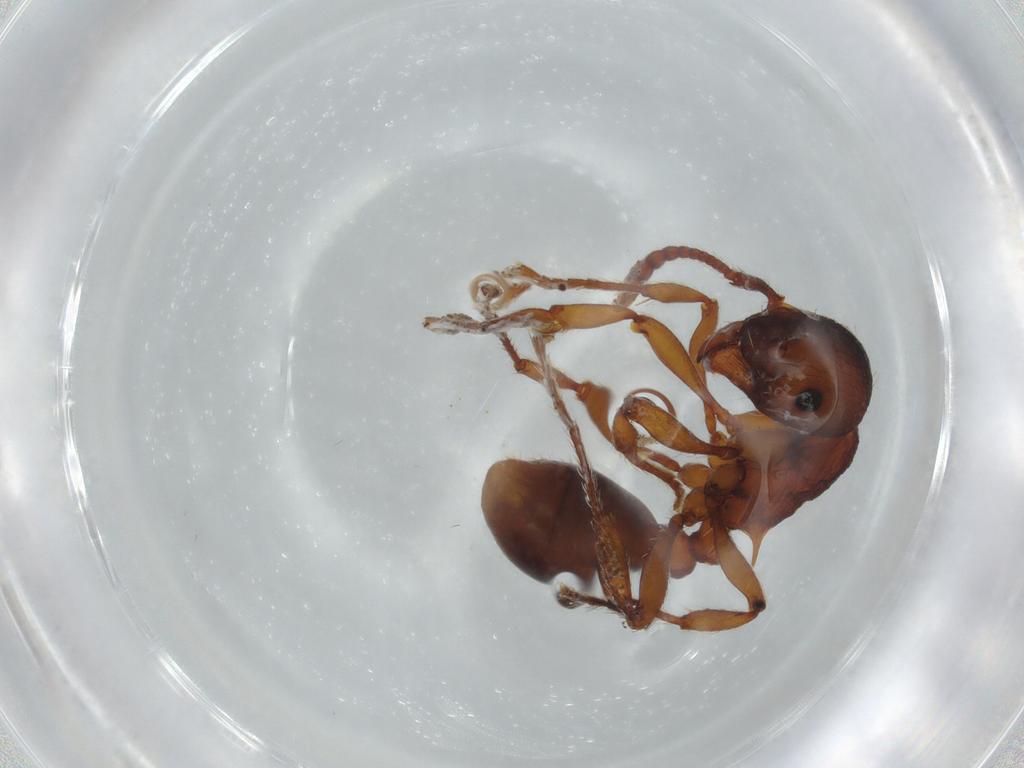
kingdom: Animalia
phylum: Arthropoda
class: Insecta
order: Hymenoptera
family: Formicidae
